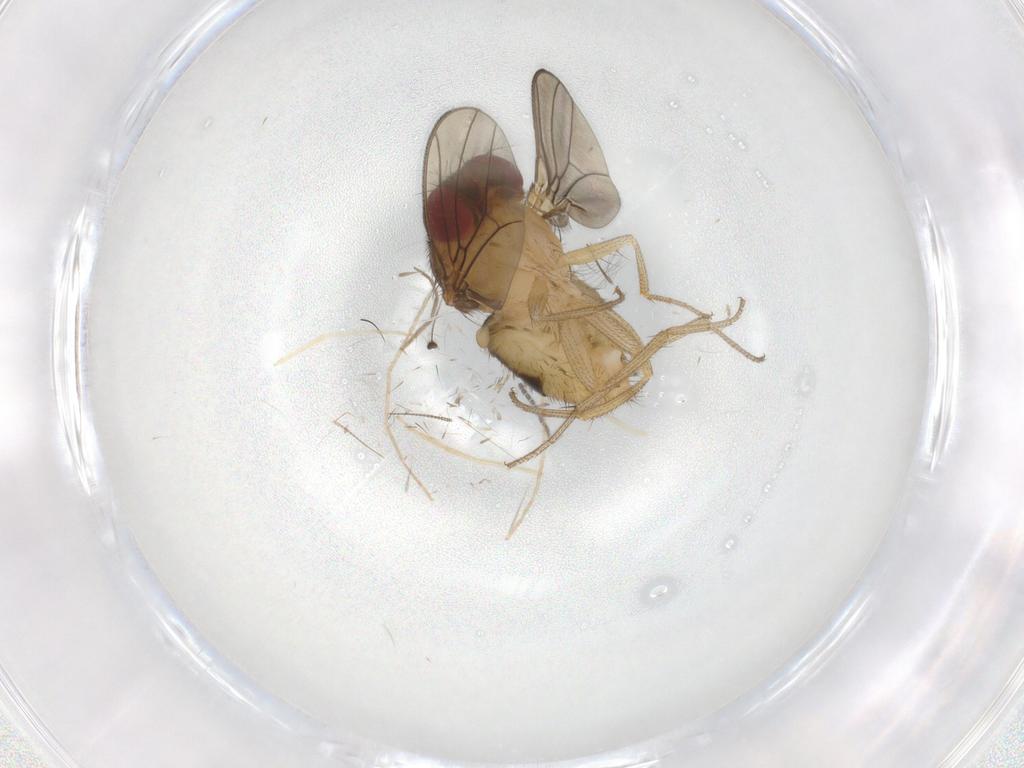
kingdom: Animalia
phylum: Arthropoda
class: Insecta
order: Diptera
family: Drosophilidae
